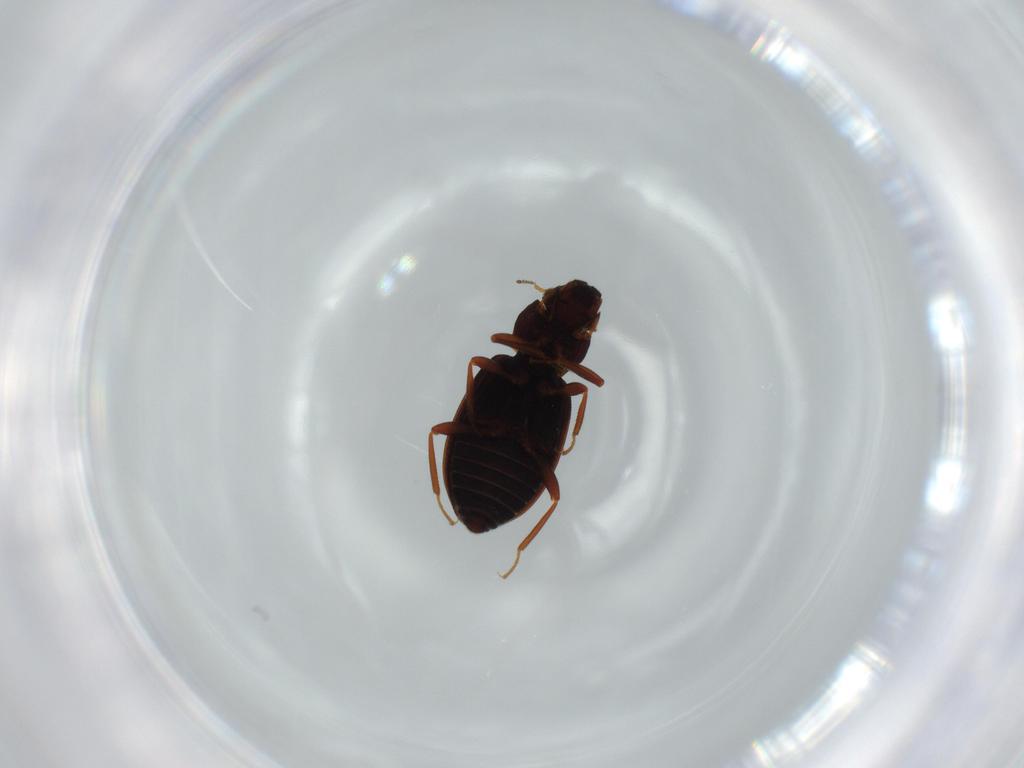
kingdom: Animalia
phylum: Arthropoda
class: Insecta
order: Coleoptera
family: Hydraenidae
